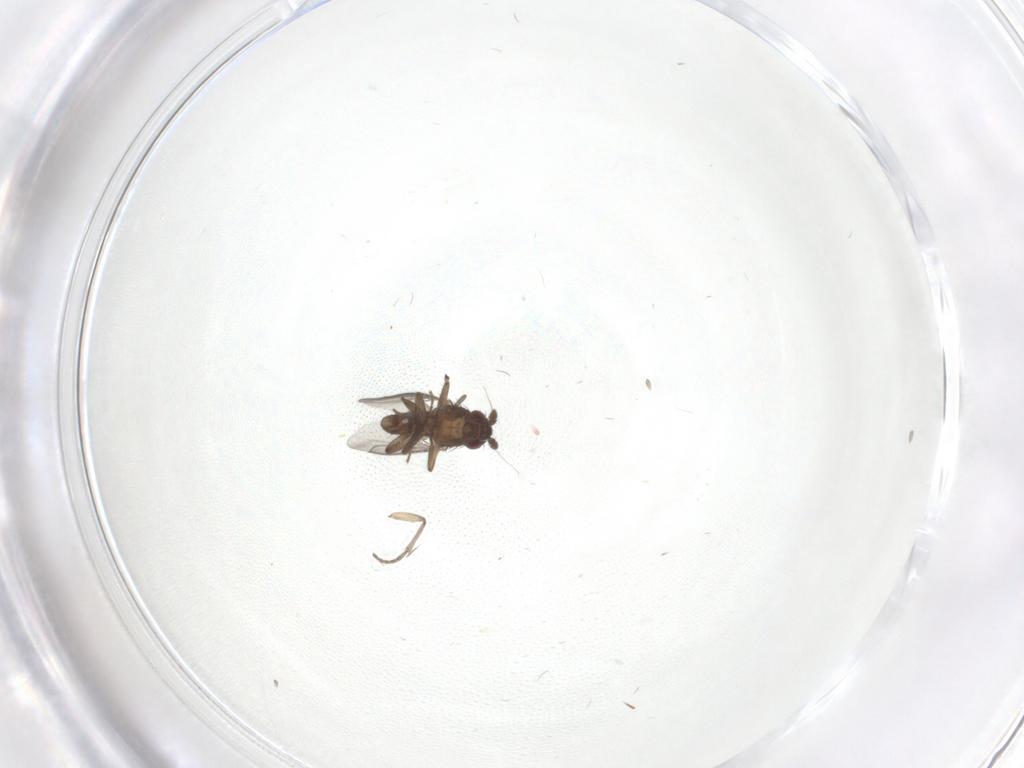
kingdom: Animalia
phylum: Arthropoda
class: Insecta
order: Diptera
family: Sphaeroceridae
